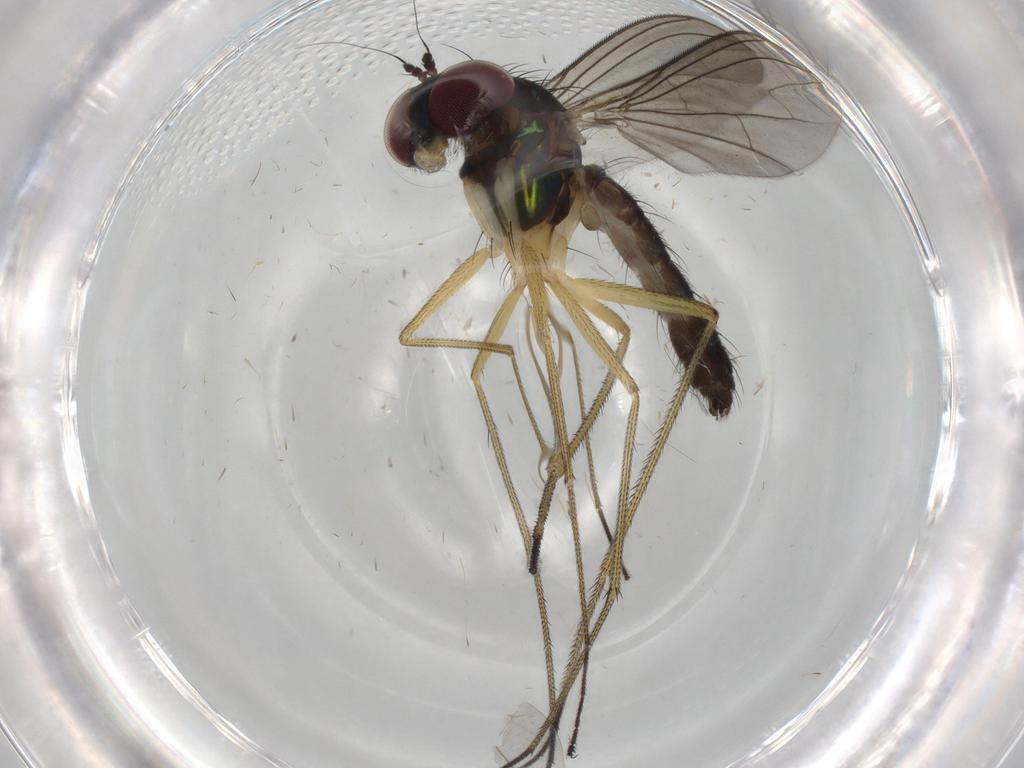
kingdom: Animalia
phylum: Arthropoda
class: Insecta
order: Diptera
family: Dolichopodidae
